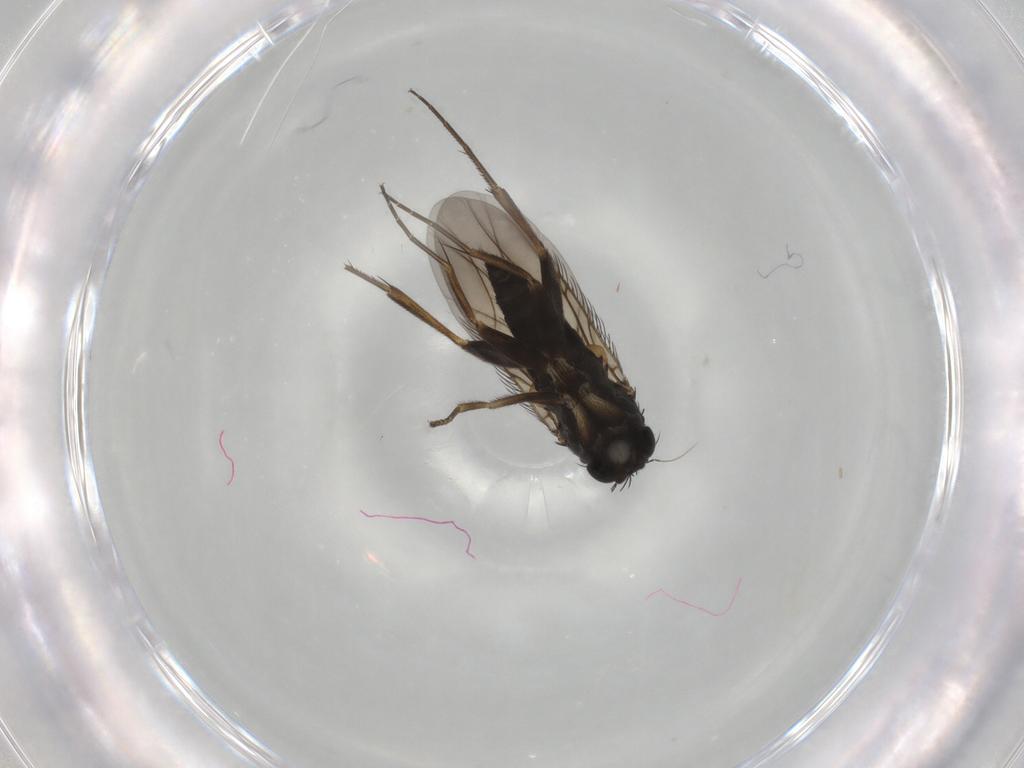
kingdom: Animalia
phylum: Arthropoda
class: Insecta
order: Diptera
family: Phoridae
